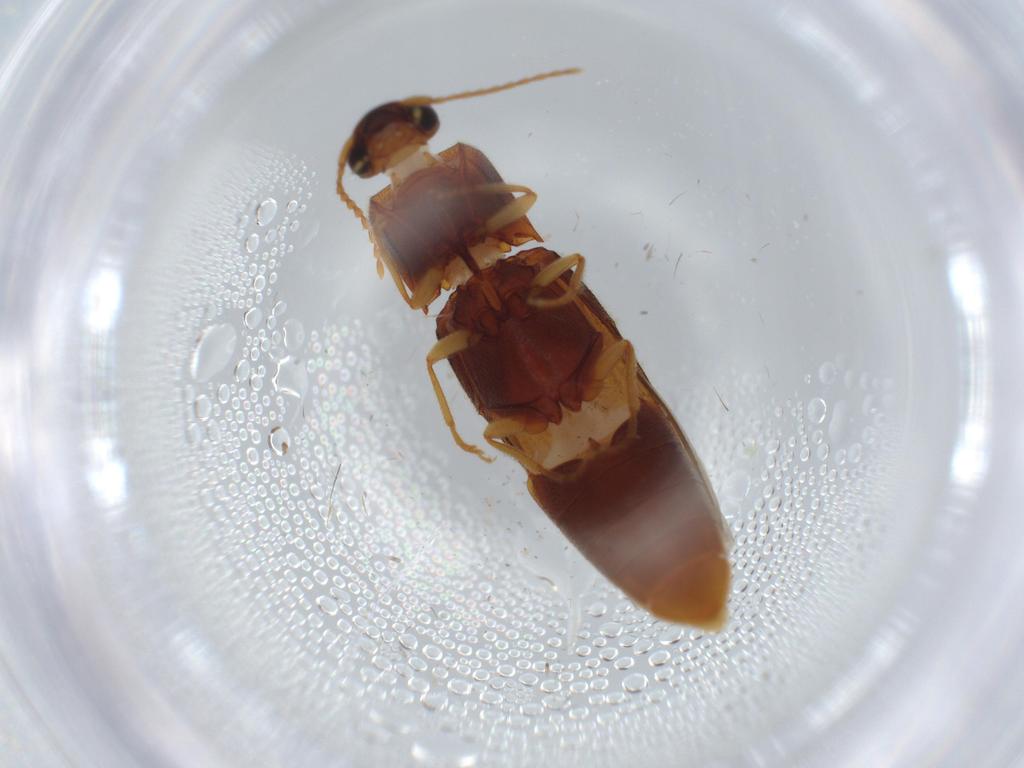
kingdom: Animalia
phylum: Arthropoda
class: Insecta
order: Coleoptera
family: Elateridae
